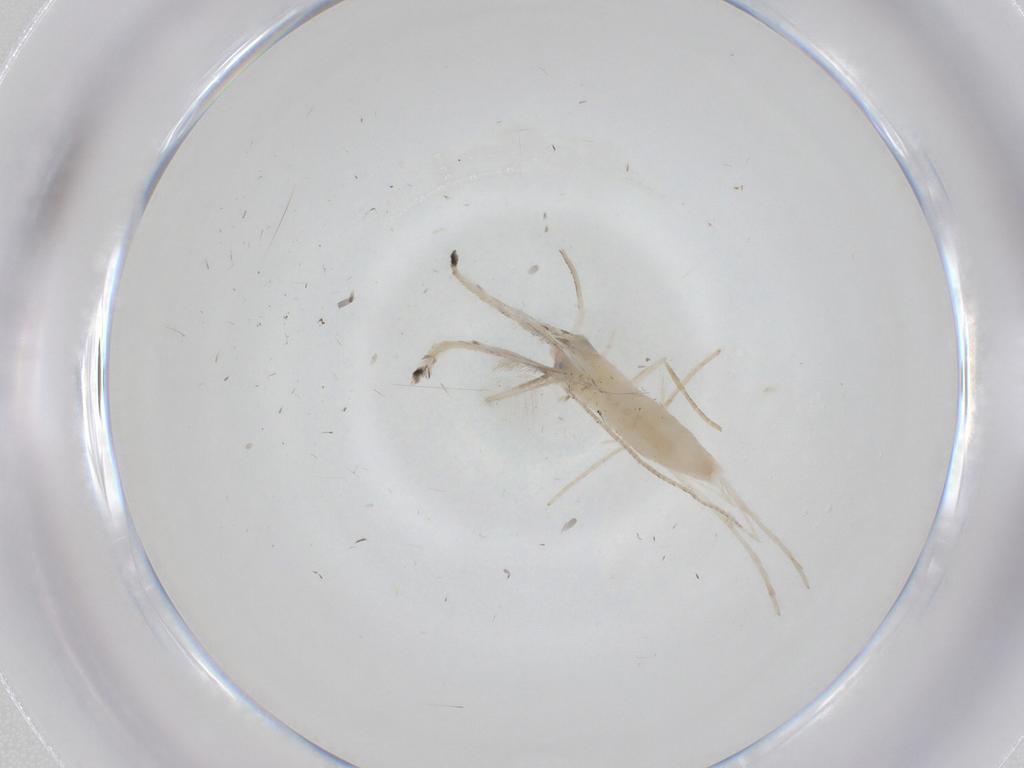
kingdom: Animalia
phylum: Arthropoda
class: Insecta
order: Lepidoptera
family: Gracillariidae
